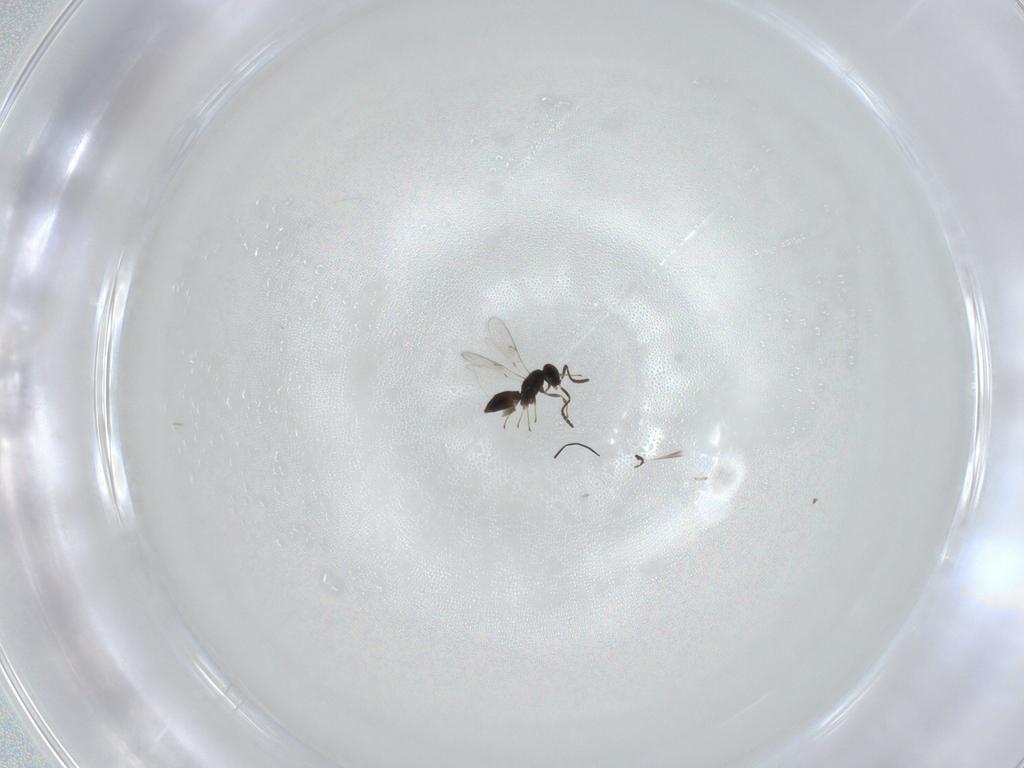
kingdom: Animalia
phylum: Arthropoda
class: Insecta
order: Hymenoptera
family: Scelionidae
